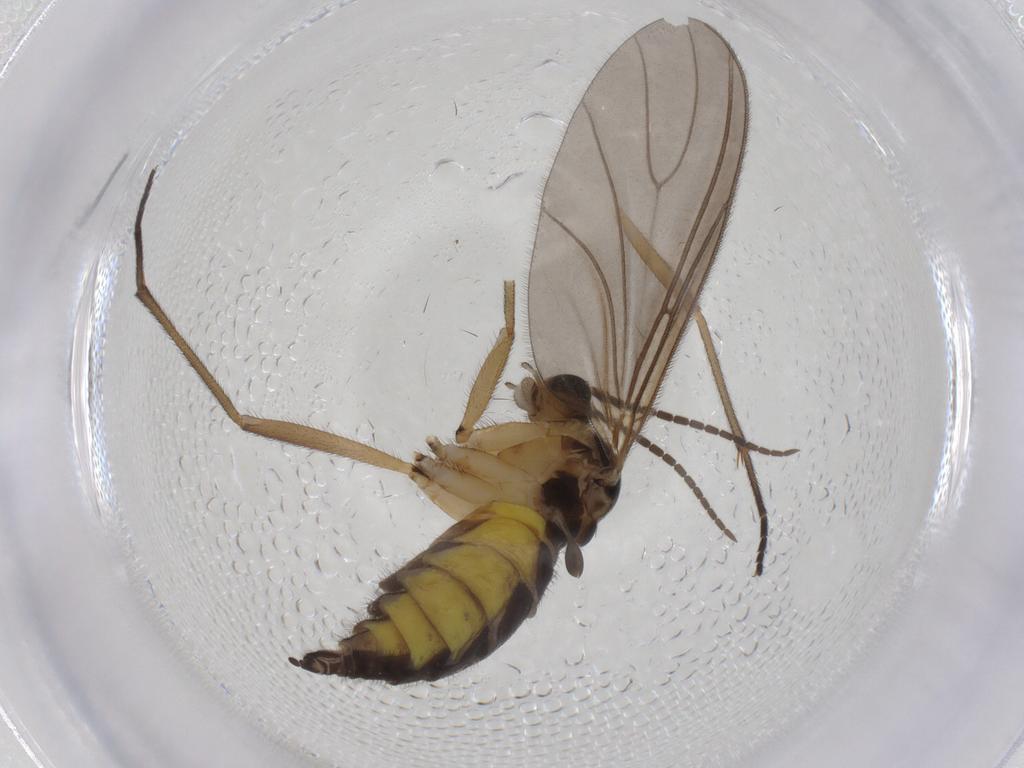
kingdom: Animalia
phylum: Arthropoda
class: Insecta
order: Diptera
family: Sciaridae
